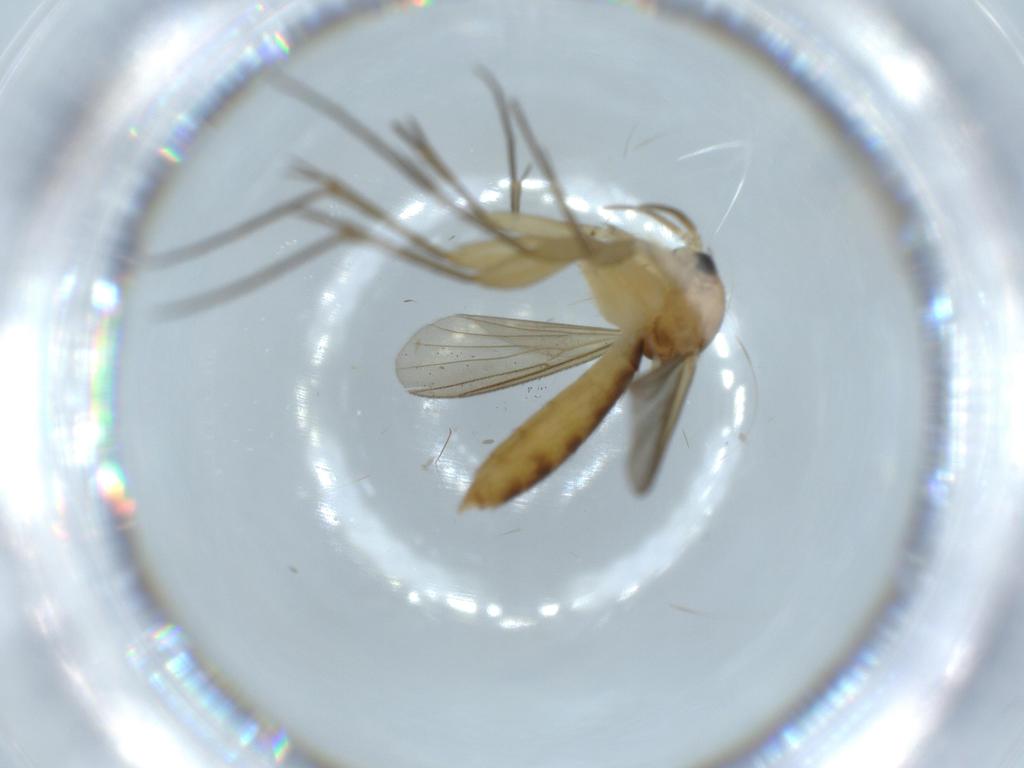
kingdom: Animalia
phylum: Arthropoda
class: Insecta
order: Diptera
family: Mycetophilidae
